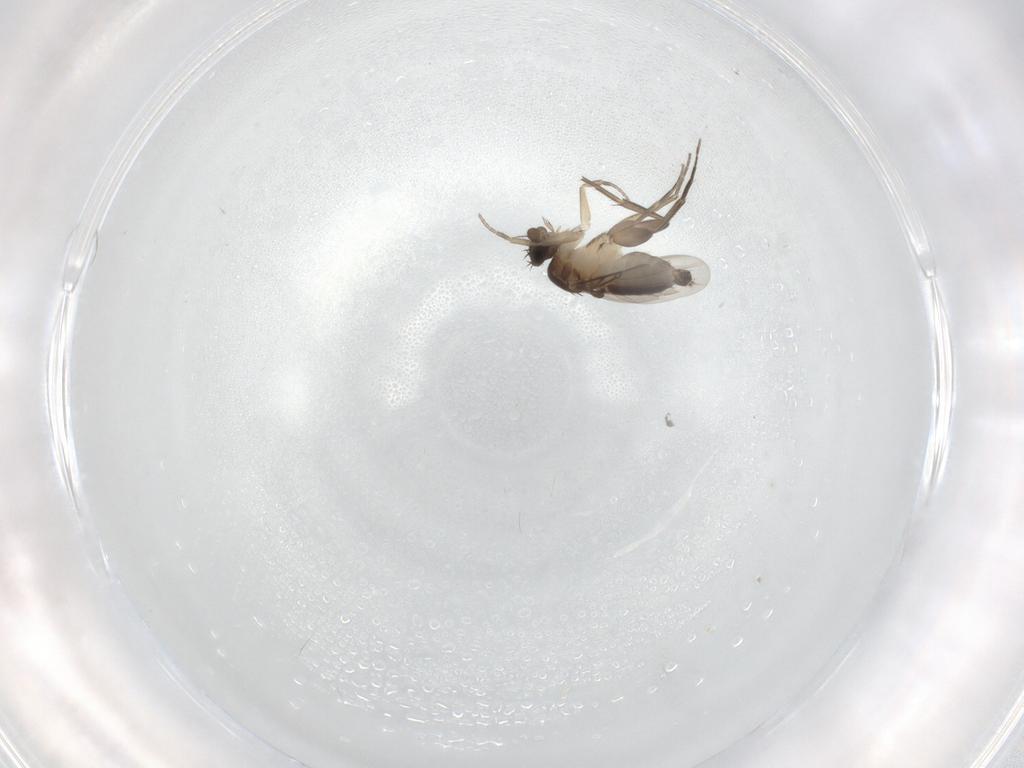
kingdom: Animalia
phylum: Arthropoda
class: Insecta
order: Diptera
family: Phoridae
